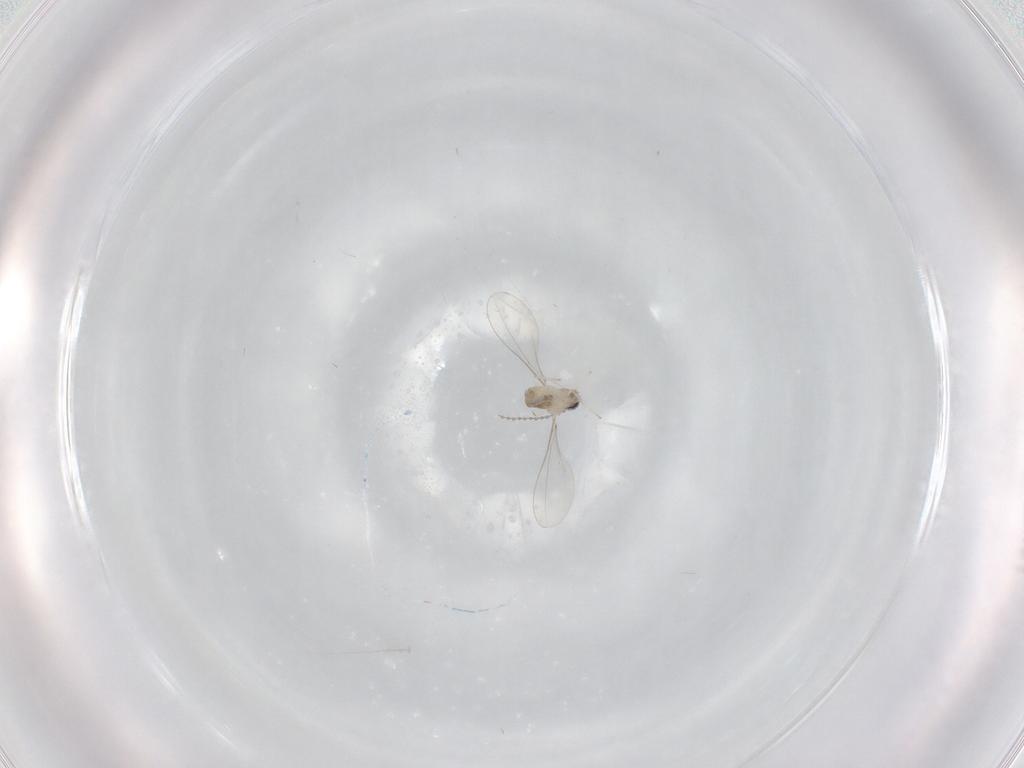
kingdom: Animalia
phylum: Arthropoda
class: Insecta
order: Diptera
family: Cecidomyiidae
